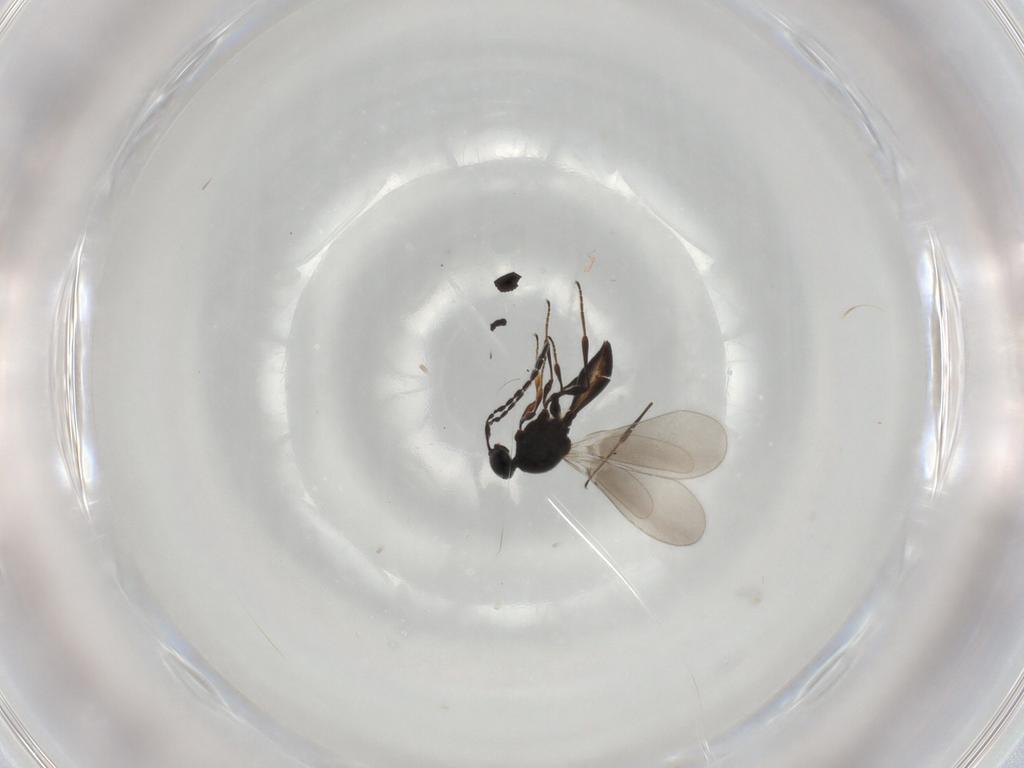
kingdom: Animalia
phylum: Arthropoda
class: Insecta
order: Hymenoptera
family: Platygastridae
